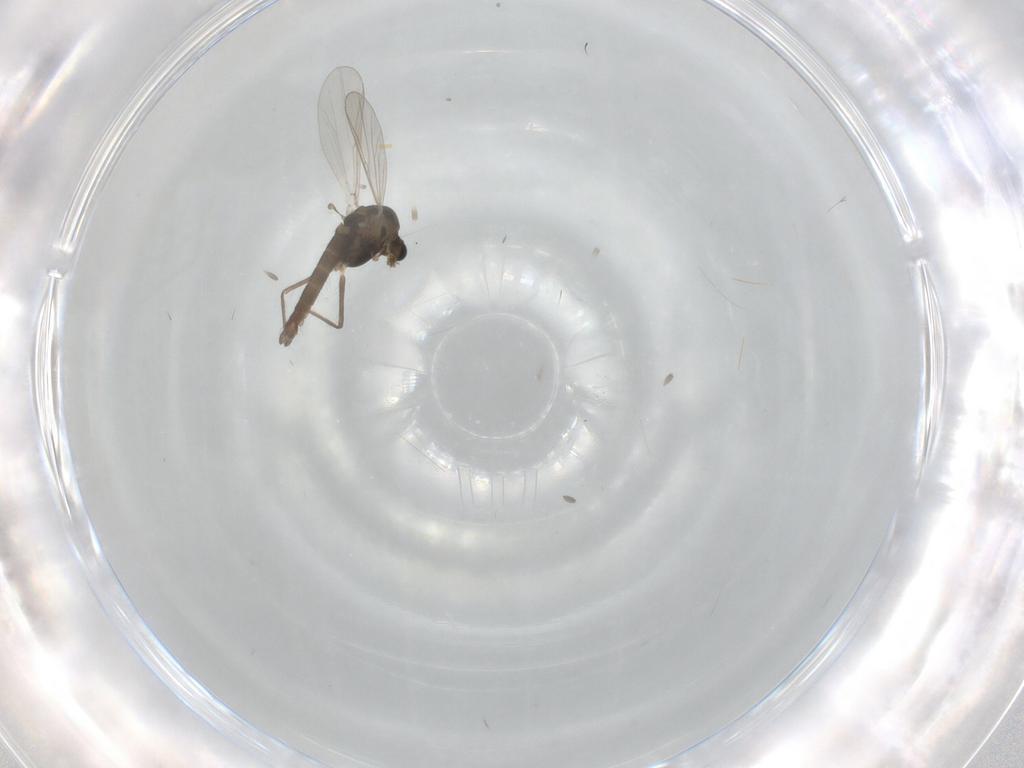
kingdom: Animalia
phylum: Arthropoda
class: Insecta
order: Diptera
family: Chironomidae
